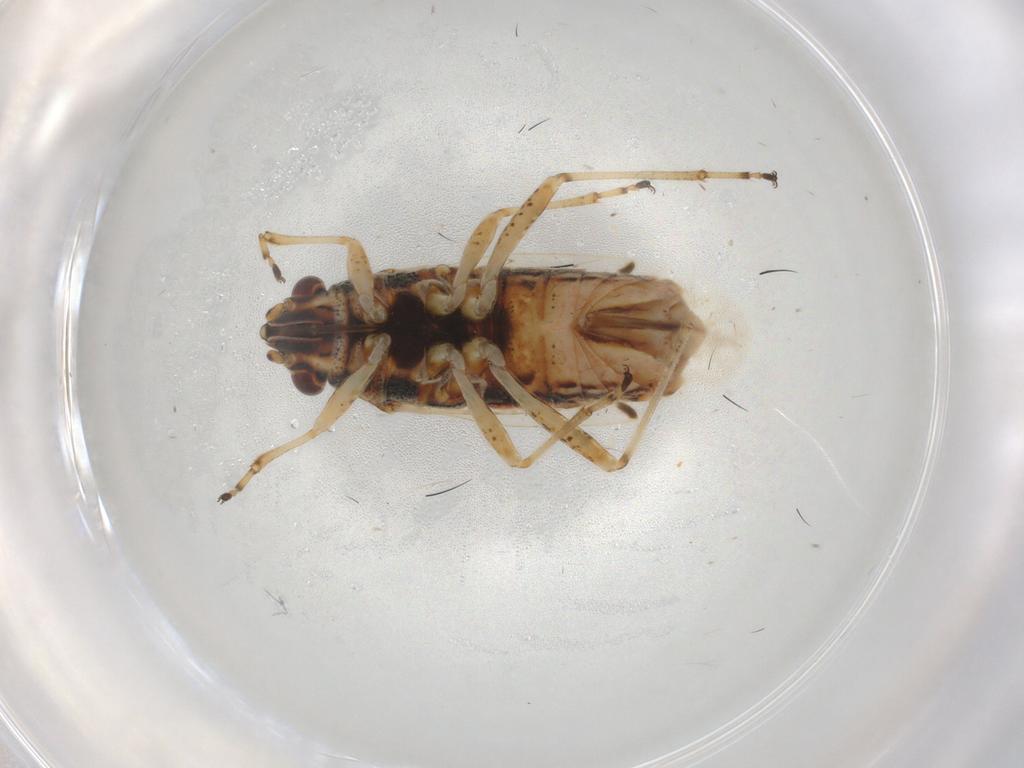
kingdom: Animalia
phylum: Arthropoda
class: Insecta
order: Hemiptera
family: Lygaeidae
